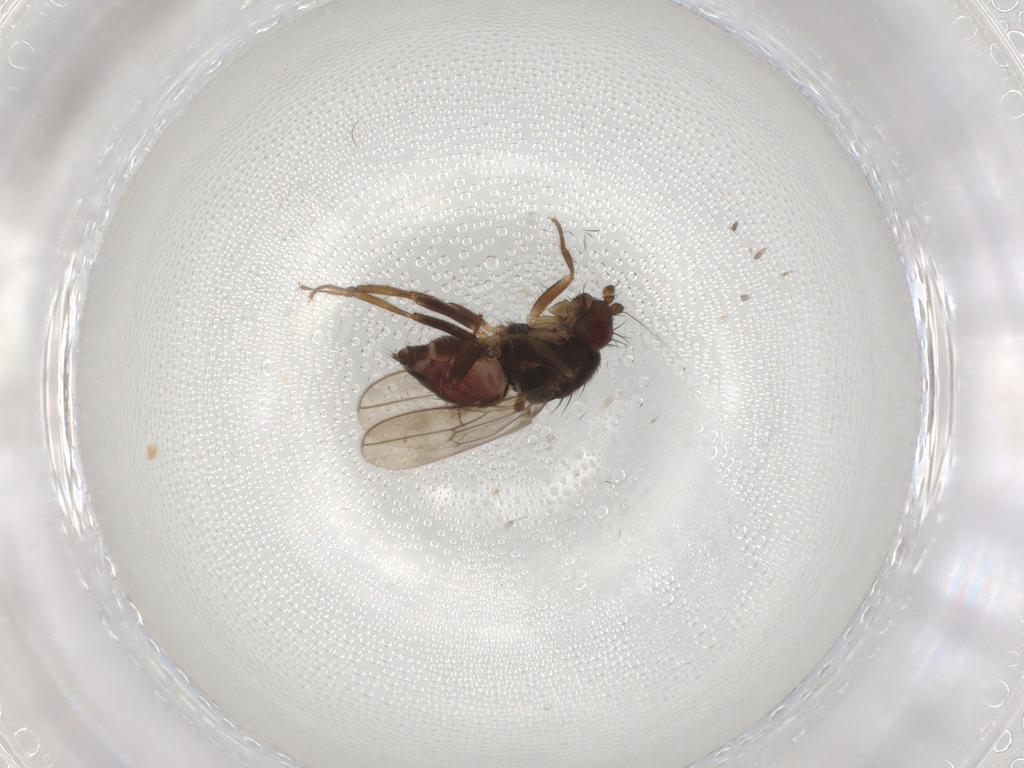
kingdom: Animalia
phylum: Arthropoda
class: Insecta
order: Diptera
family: Sphaeroceridae
